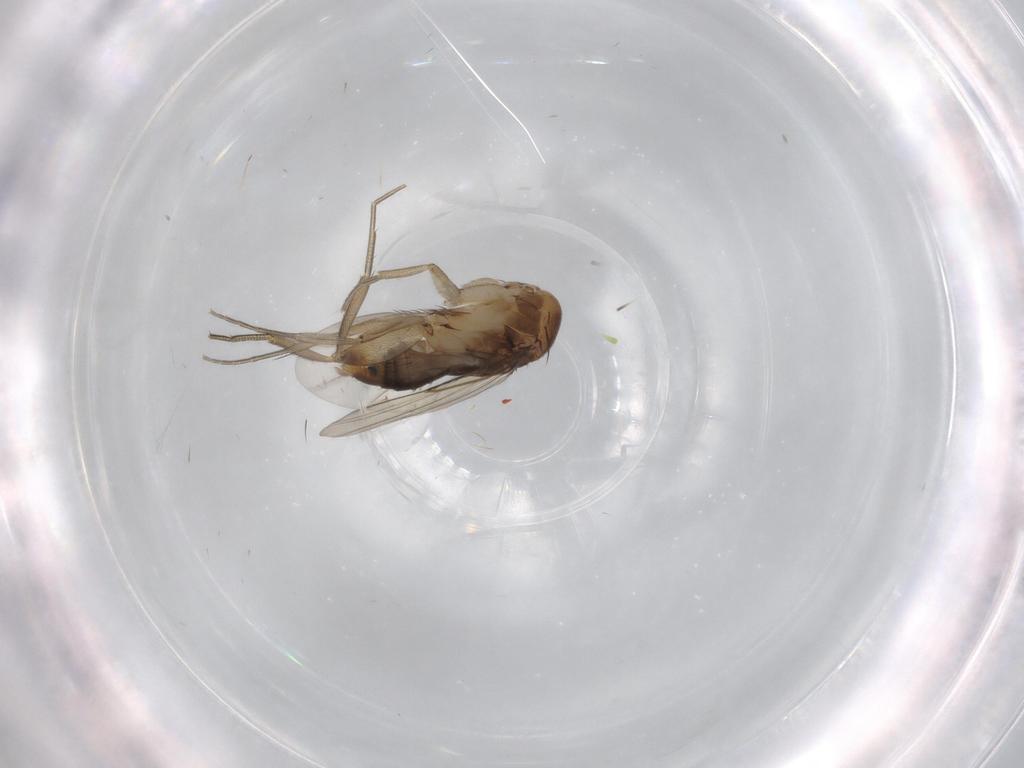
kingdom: Animalia
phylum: Arthropoda
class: Insecta
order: Diptera
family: Phoridae
